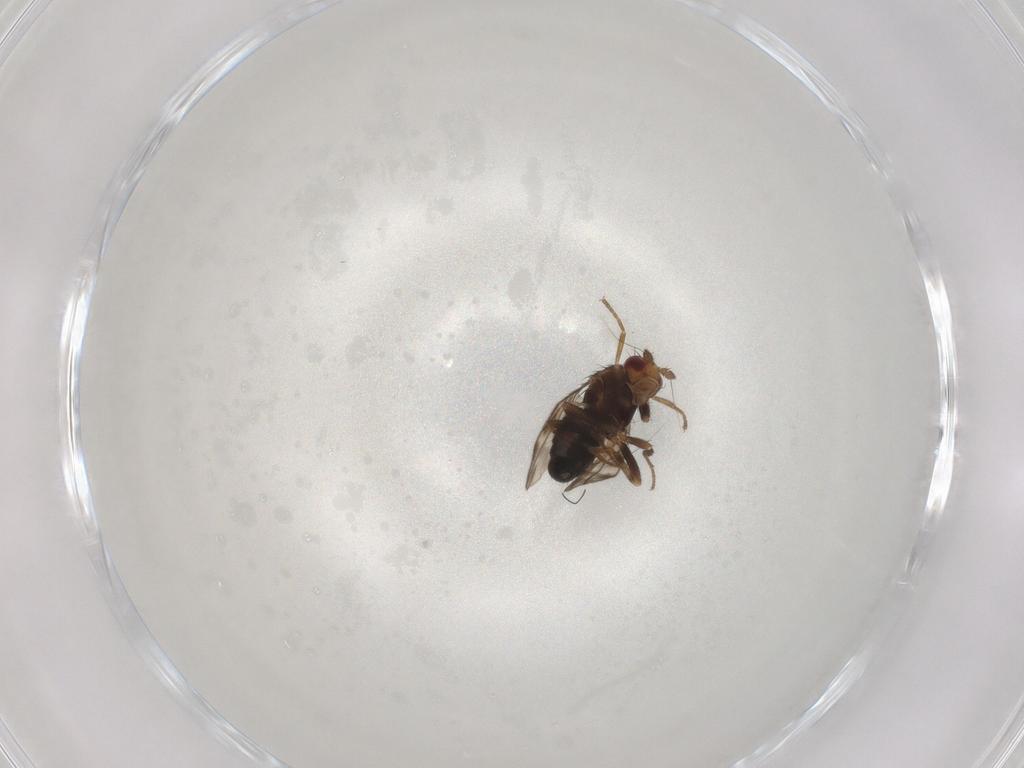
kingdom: Animalia
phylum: Arthropoda
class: Insecta
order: Diptera
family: Sphaeroceridae
